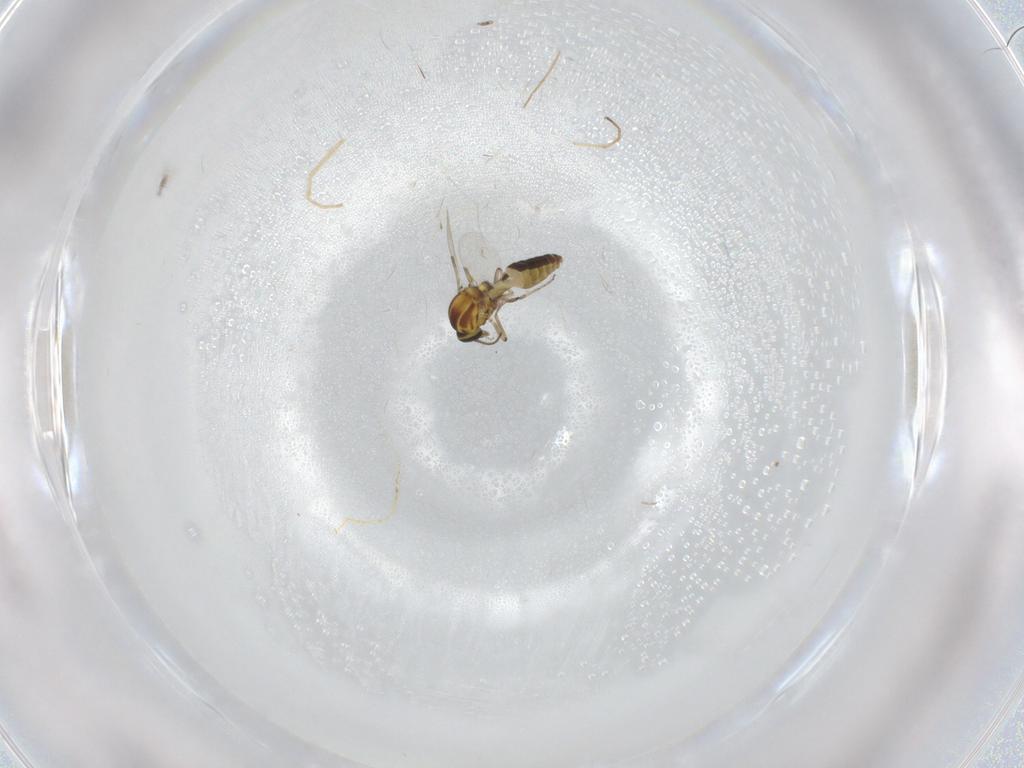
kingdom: Animalia
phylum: Arthropoda
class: Insecta
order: Diptera
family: Ceratopogonidae
